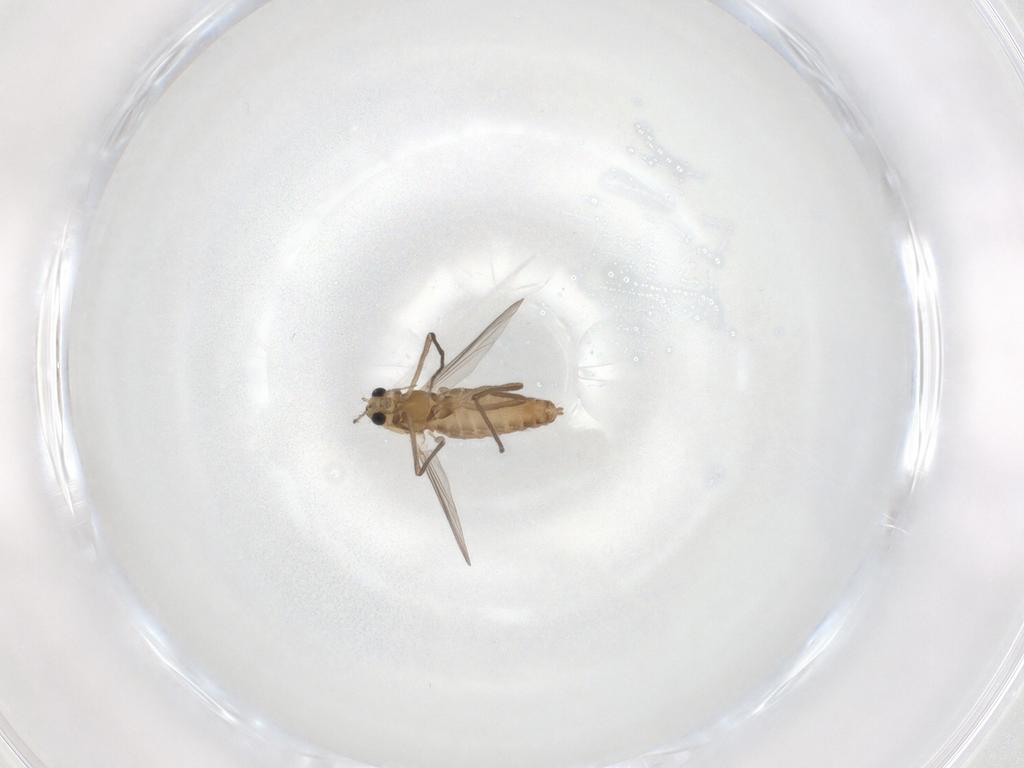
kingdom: Animalia
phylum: Arthropoda
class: Insecta
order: Diptera
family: Chironomidae
